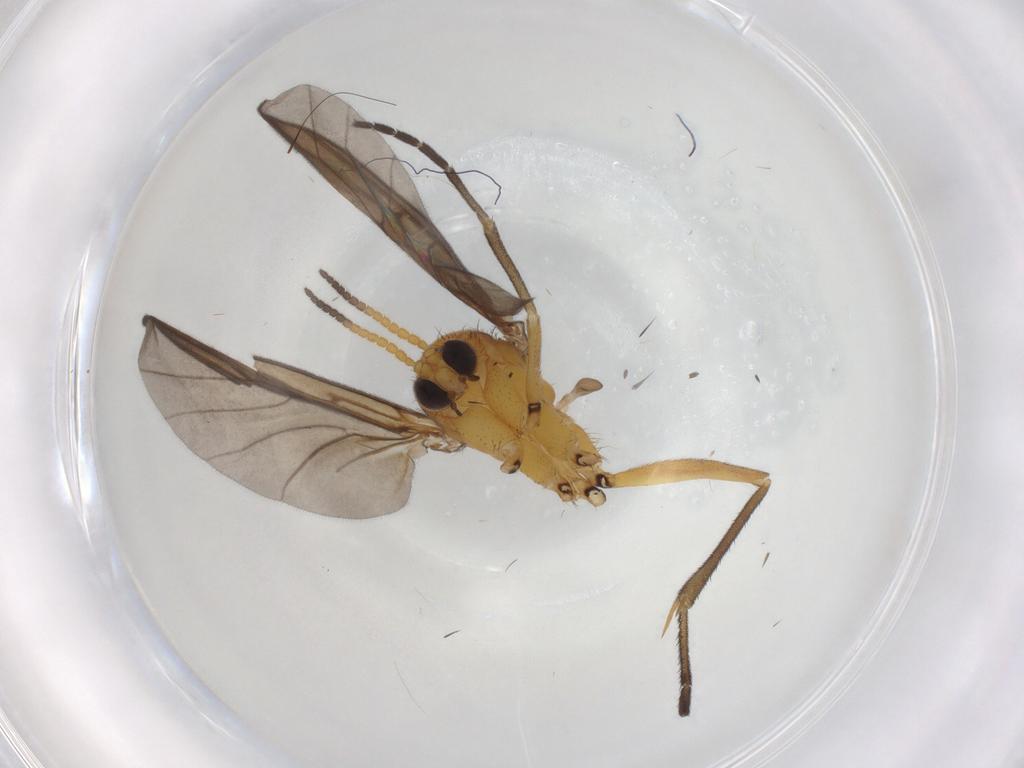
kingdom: Animalia
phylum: Arthropoda
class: Insecta
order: Diptera
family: Mycetophilidae
